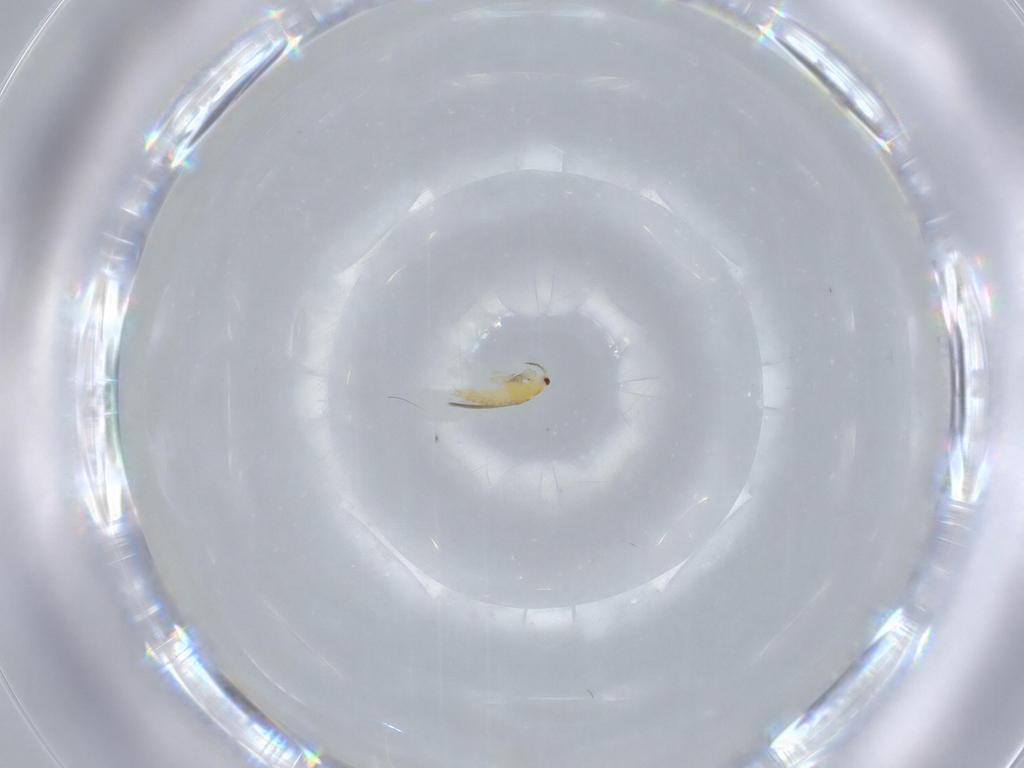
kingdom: Animalia
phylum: Arthropoda
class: Insecta
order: Thysanoptera
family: Thripidae
